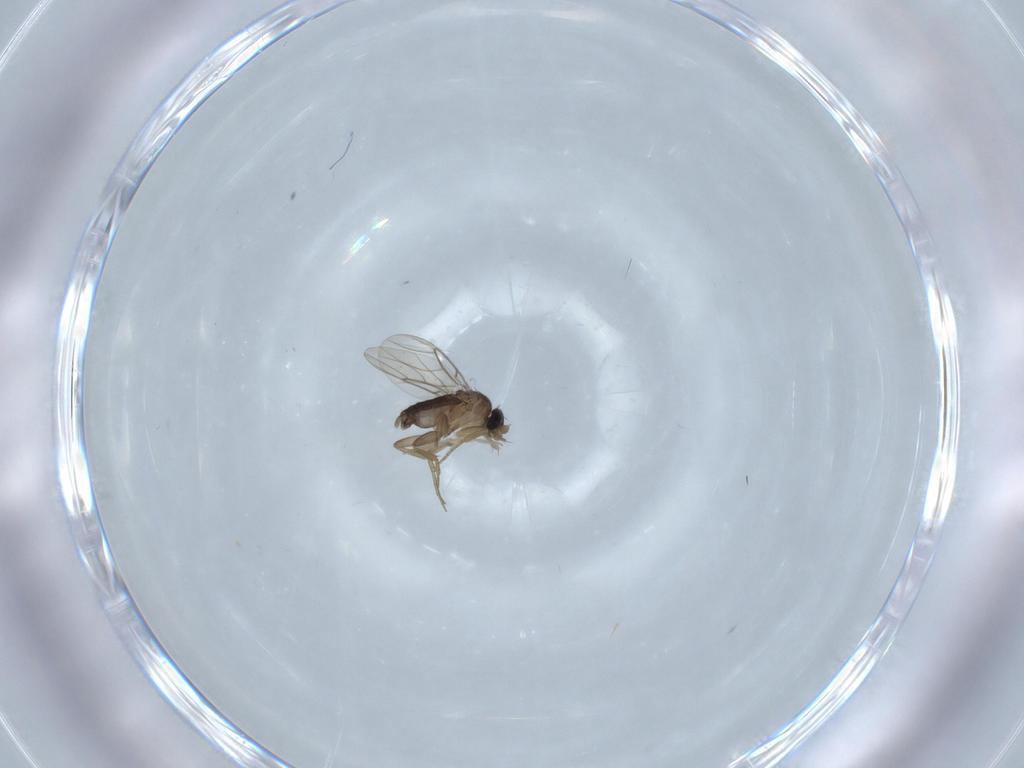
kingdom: Animalia
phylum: Arthropoda
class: Insecta
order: Diptera
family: Phoridae
